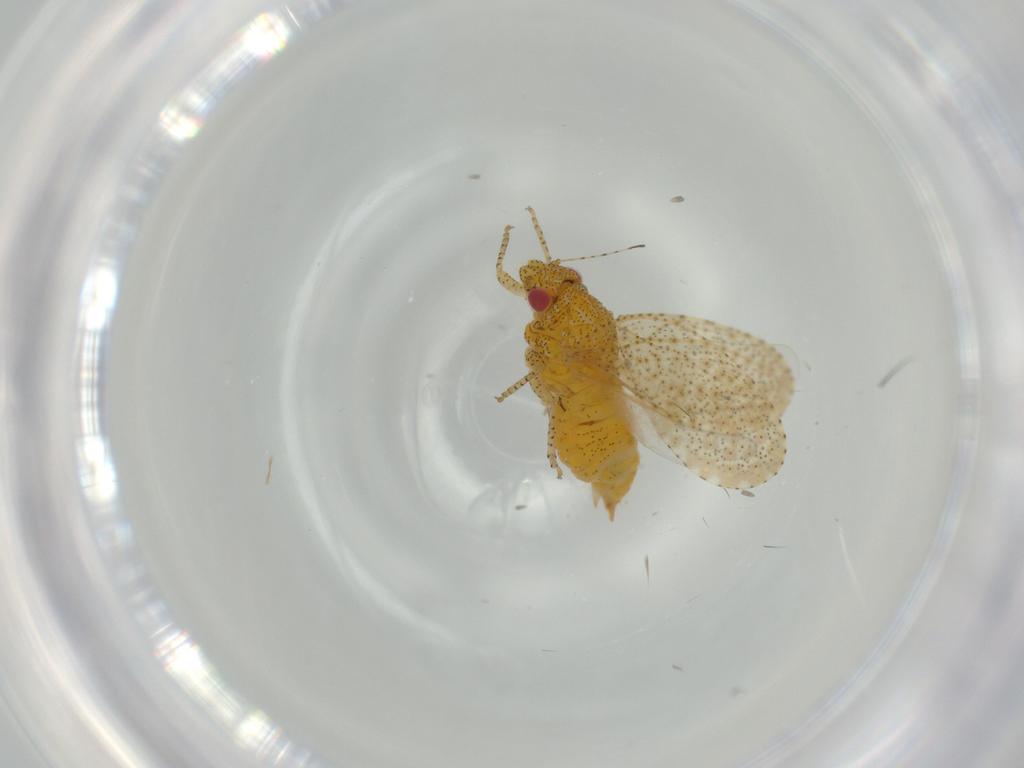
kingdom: Animalia
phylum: Arthropoda
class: Insecta
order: Hemiptera
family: Psyllidae
